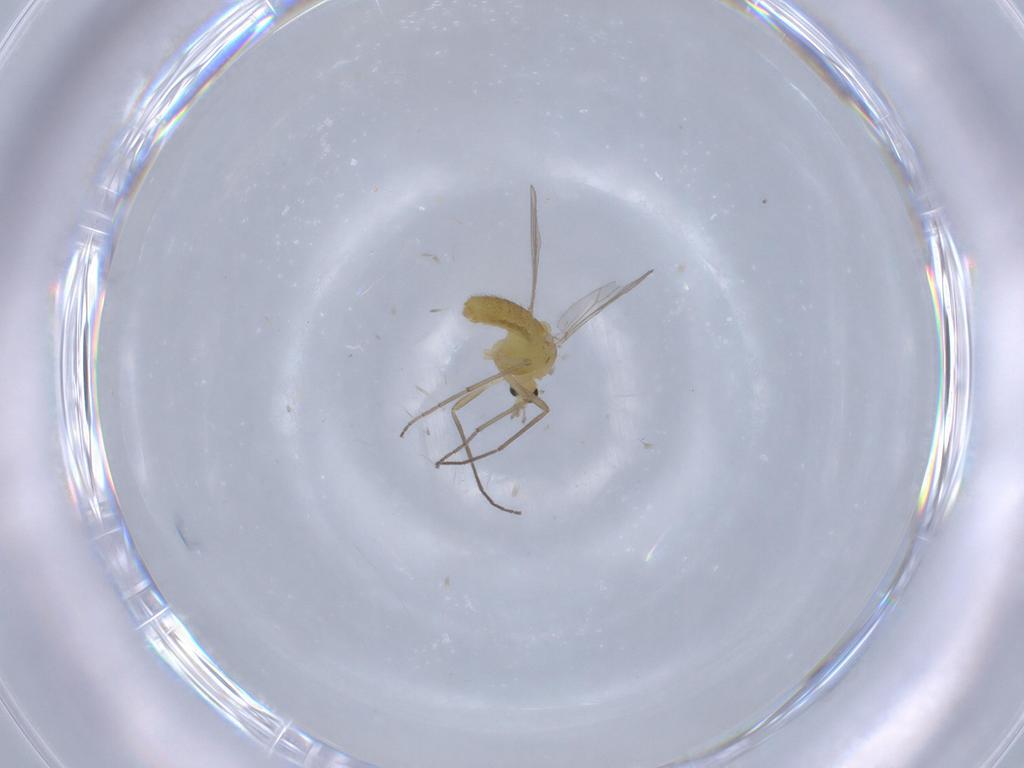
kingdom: Animalia
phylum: Arthropoda
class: Insecta
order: Diptera
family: Chironomidae
